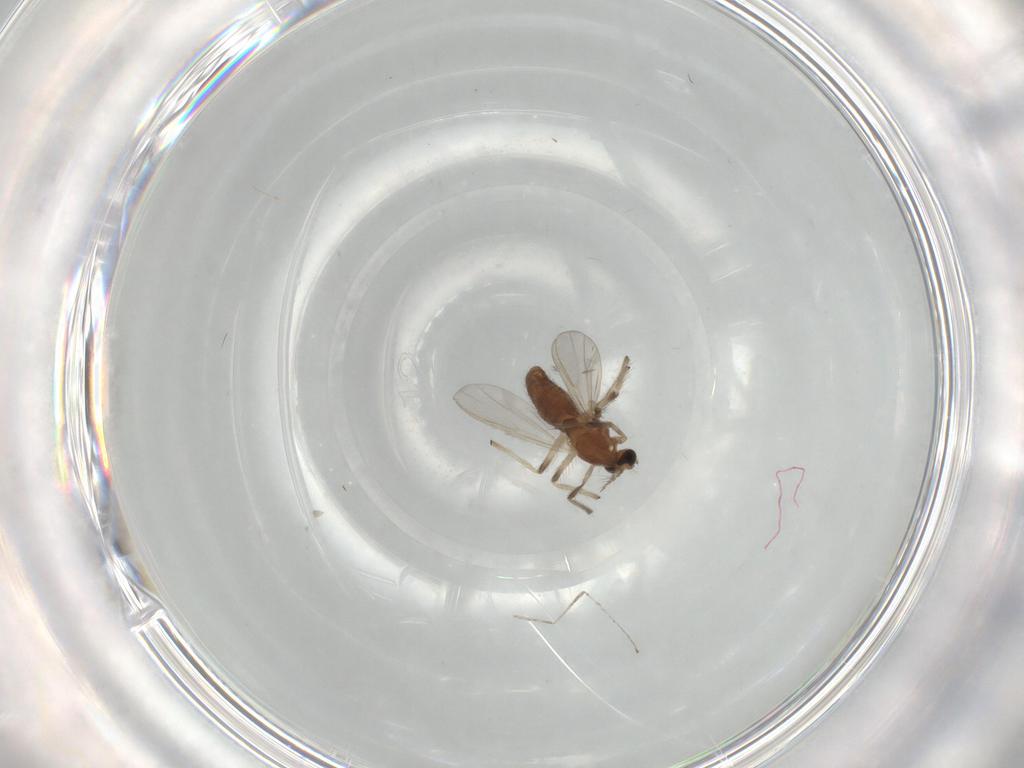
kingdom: Animalia
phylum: Arthropoda
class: Insecta
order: Diptera
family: Chironomidae
